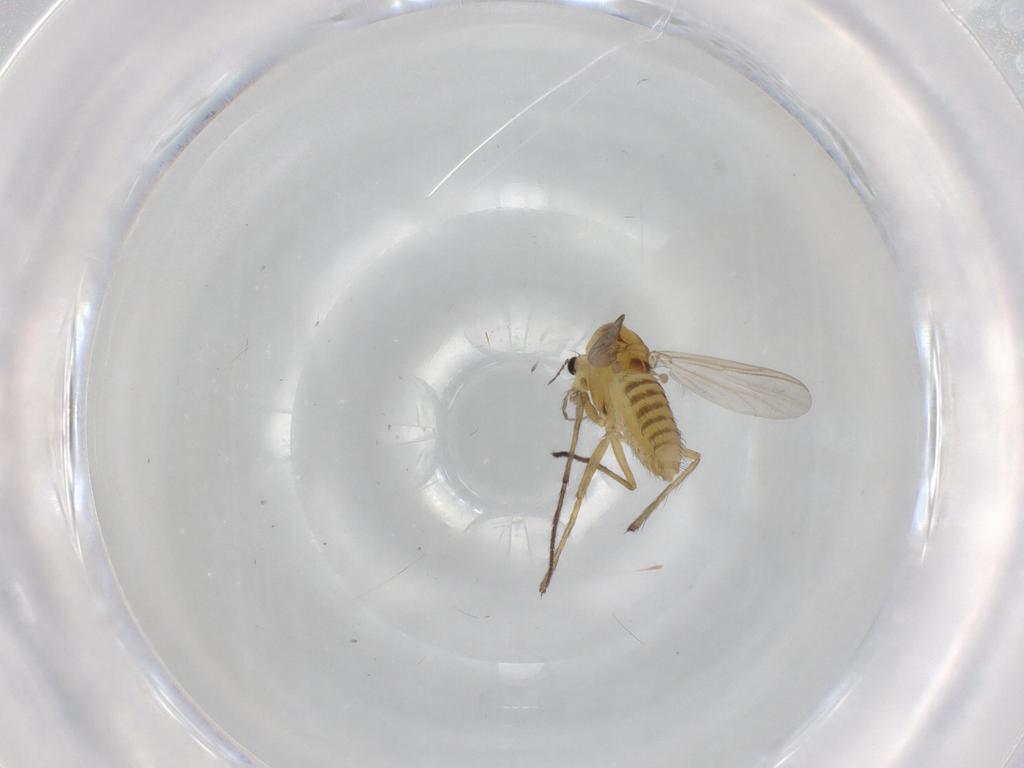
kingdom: Animalia
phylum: Arthropoda
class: Insecta
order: Diptera
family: Chironomidae
